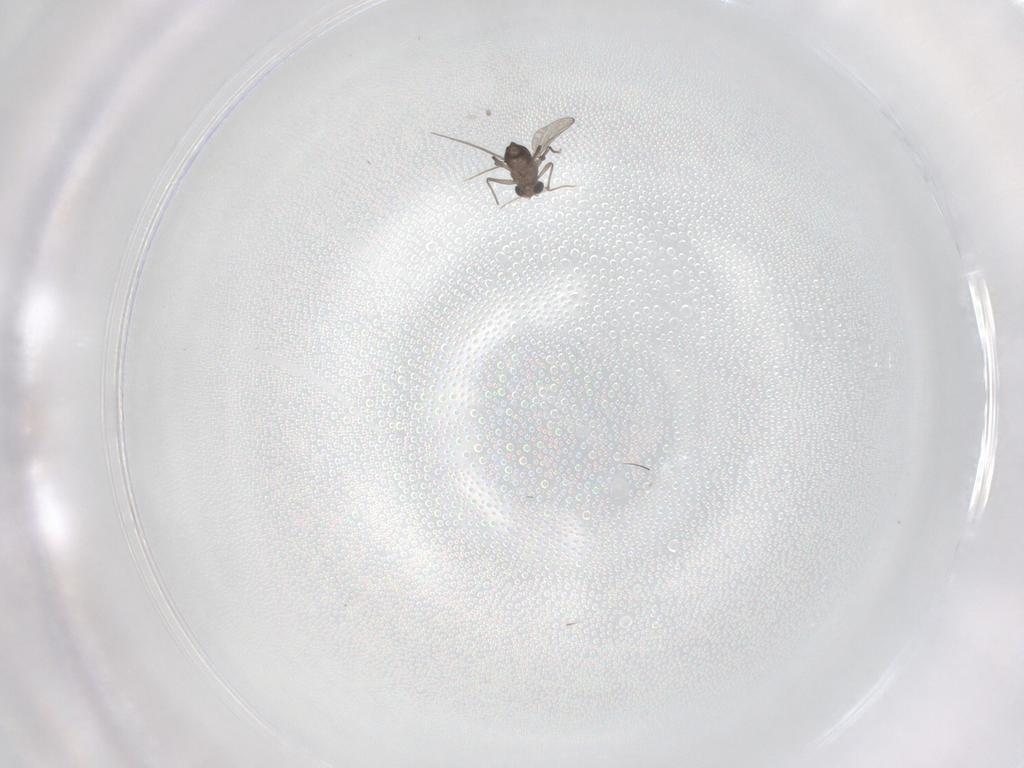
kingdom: Animalia
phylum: Arthropoda
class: Insecta
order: Diptera
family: Chironomidae
